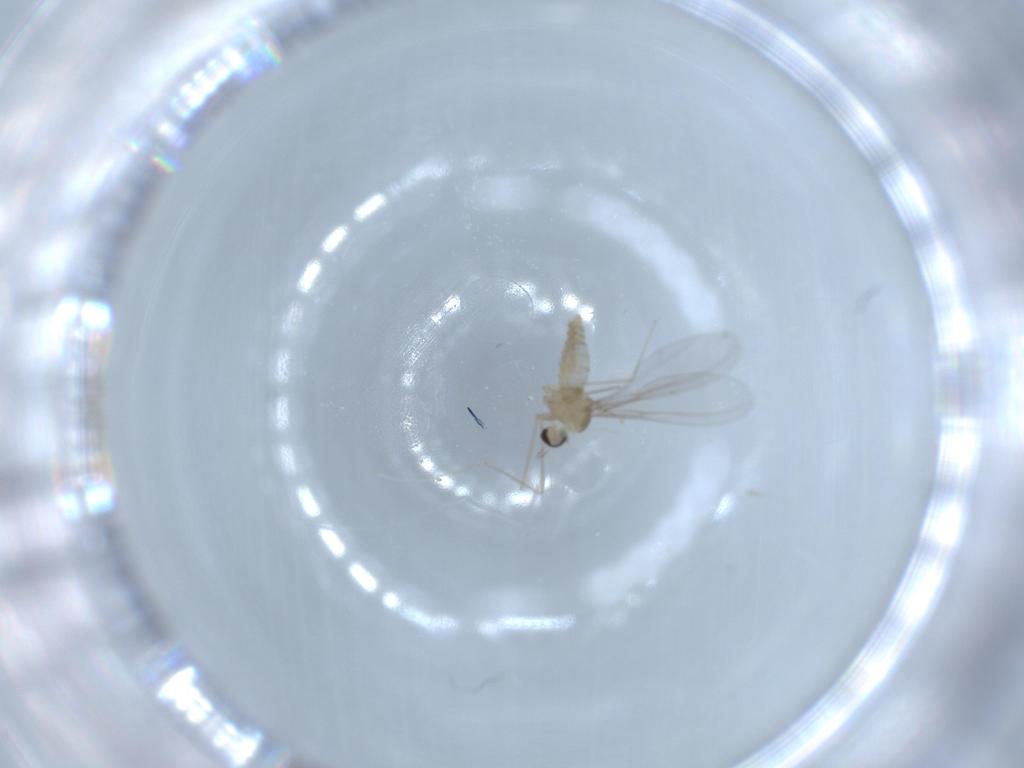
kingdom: Animalia
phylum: Arthropoda
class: Insecta
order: Diptera
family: Cecidomyiidae
